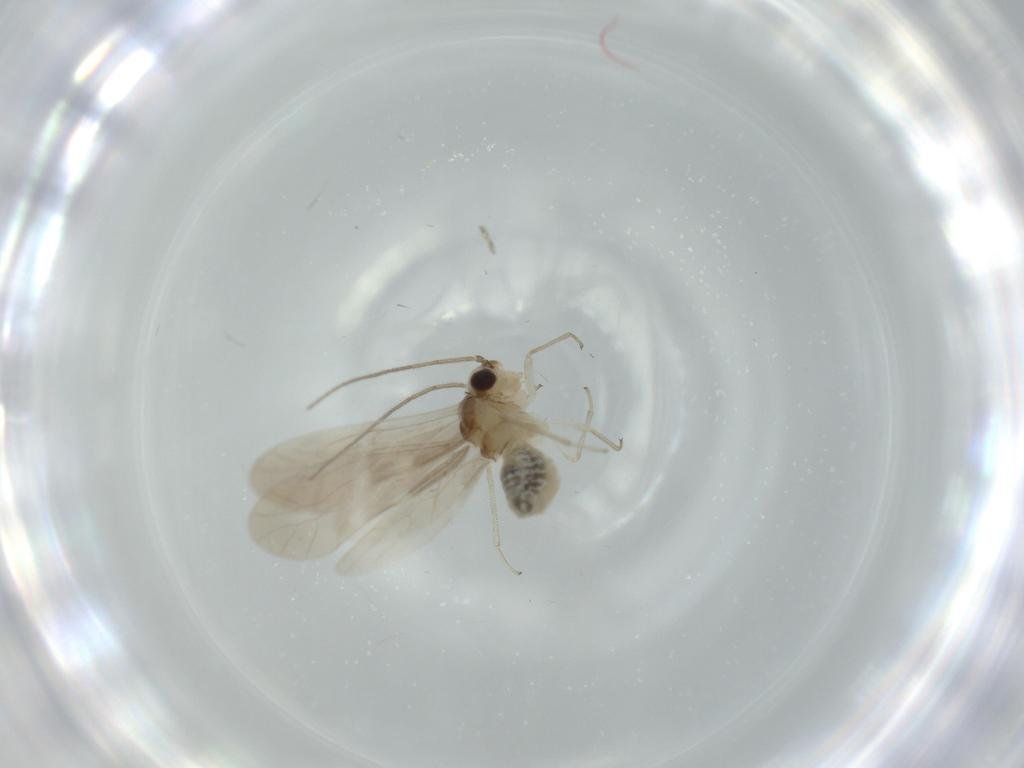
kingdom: Animalia
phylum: Arthropoda
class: Insecta
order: Psocodea
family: Caeciliusidae
